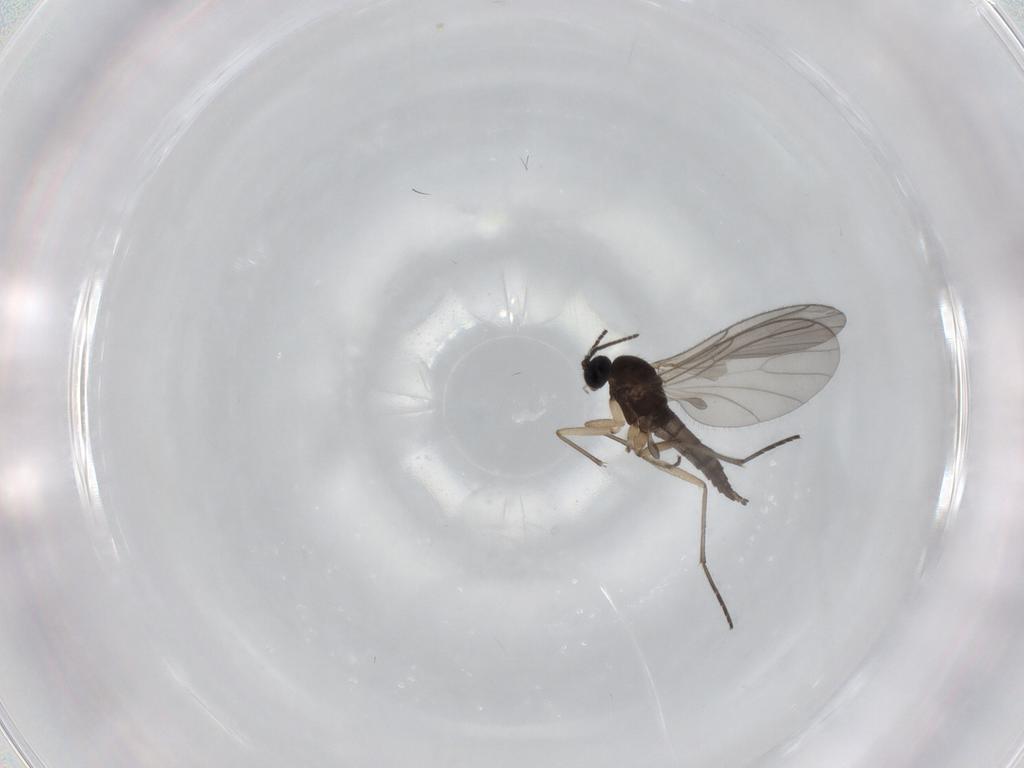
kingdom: Animalia
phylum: Arthropoda
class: Insecta
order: Diptera
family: Sciaridae
